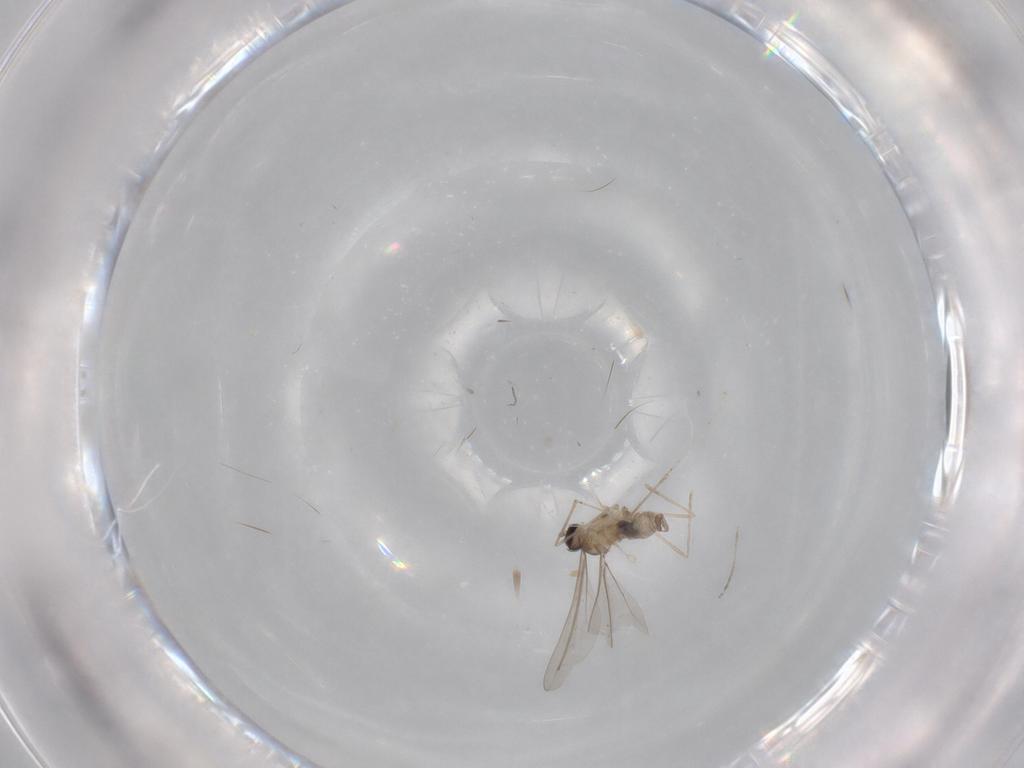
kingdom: Animalia
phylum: Arthropoda
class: Insecta
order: Diptera
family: Cecidomyiidae
